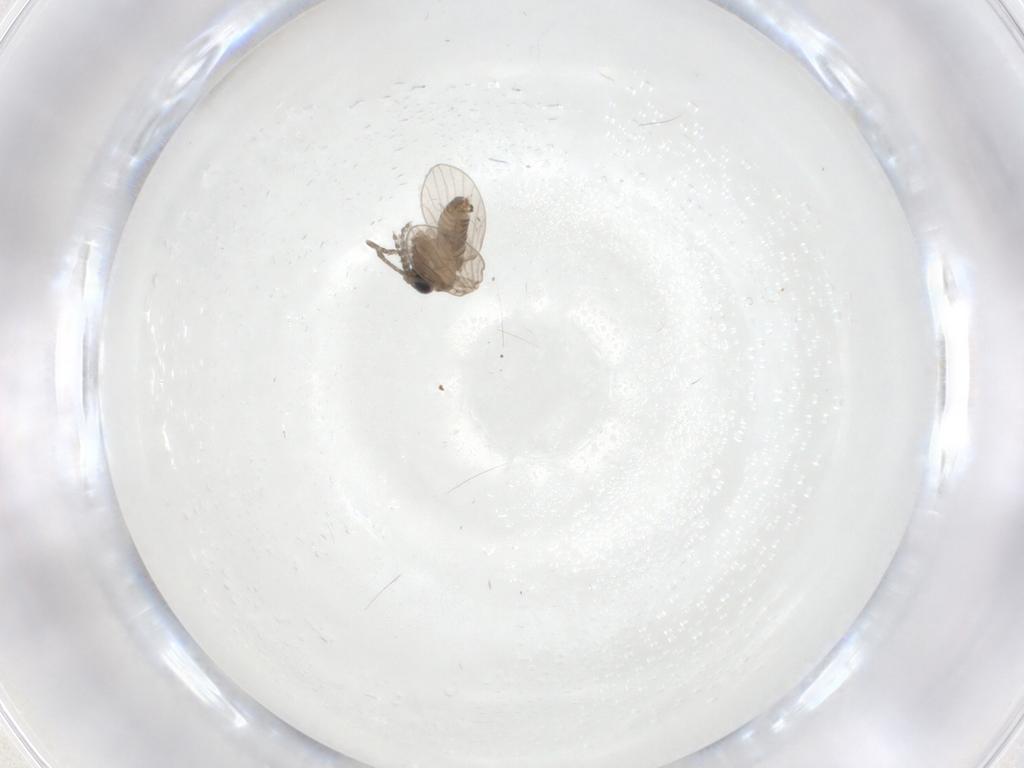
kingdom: Animalia
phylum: Arthropoda
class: Insecta
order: Diptera
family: Psychodidae
